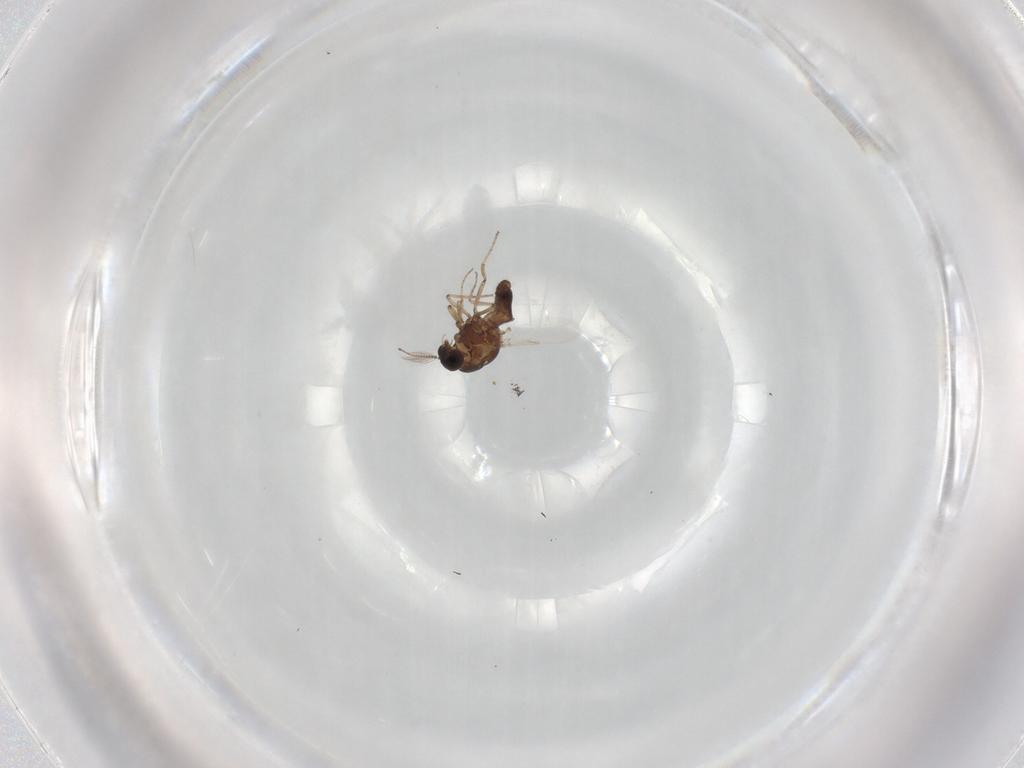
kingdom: Animalia
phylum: Arthropoda
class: Insecta
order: Diptera
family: Ceratopogonidae
